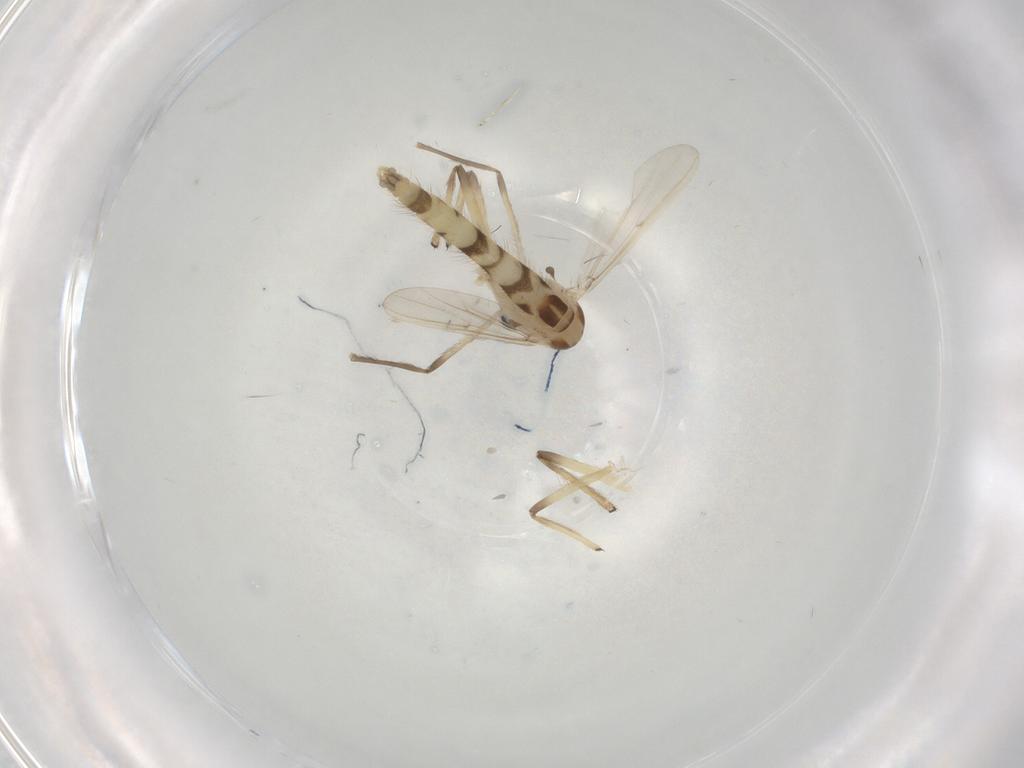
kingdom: Animalia
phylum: Arthropoda
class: Insecta
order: Diptera
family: Chironomidae
